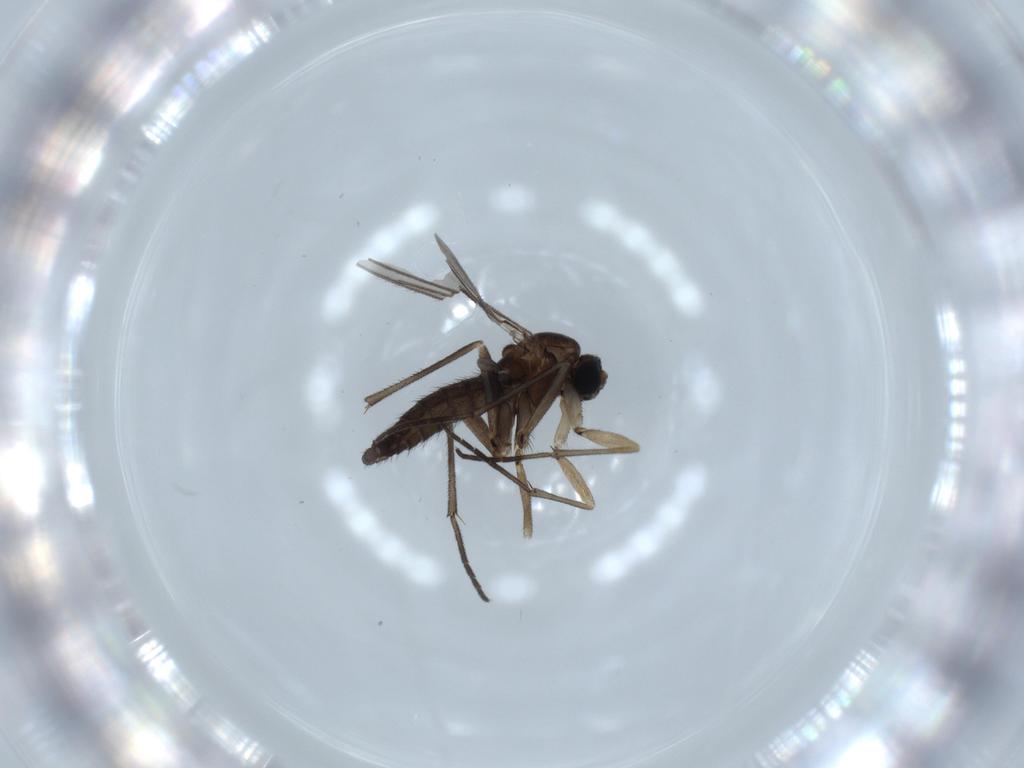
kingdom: Animalia
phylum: Arthropoda
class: Insecta
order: Diptera
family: Sciaridae
